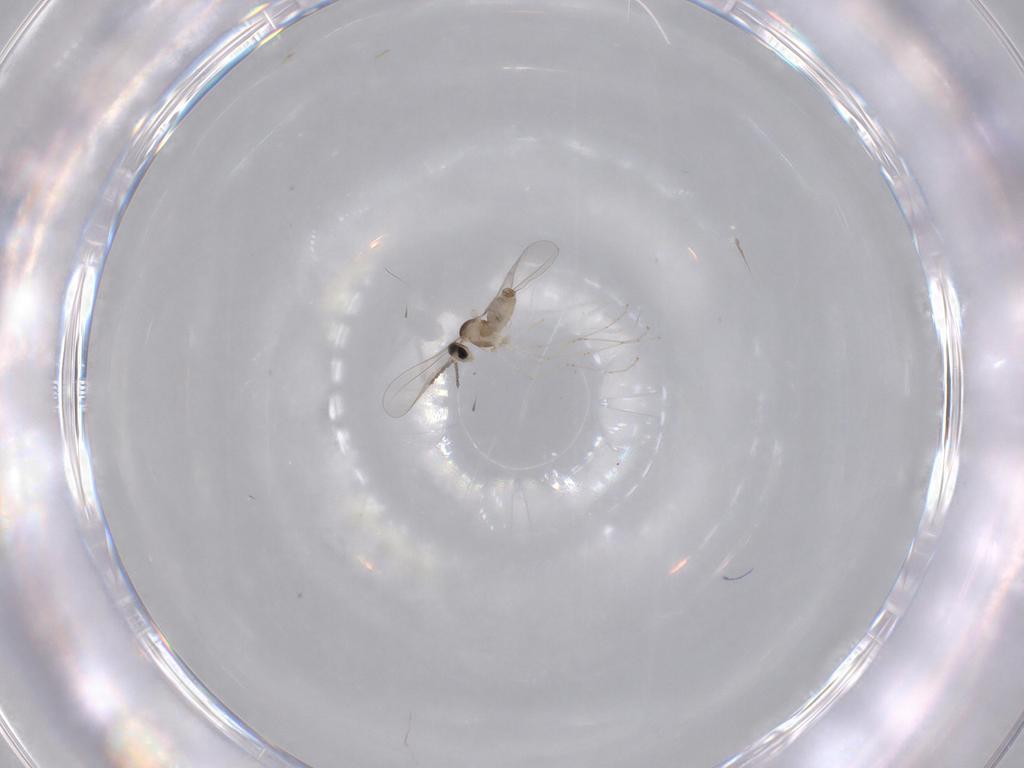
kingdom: Animalia
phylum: Arthropoda
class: Insecta
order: Diptera
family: Cecidomyiidae
